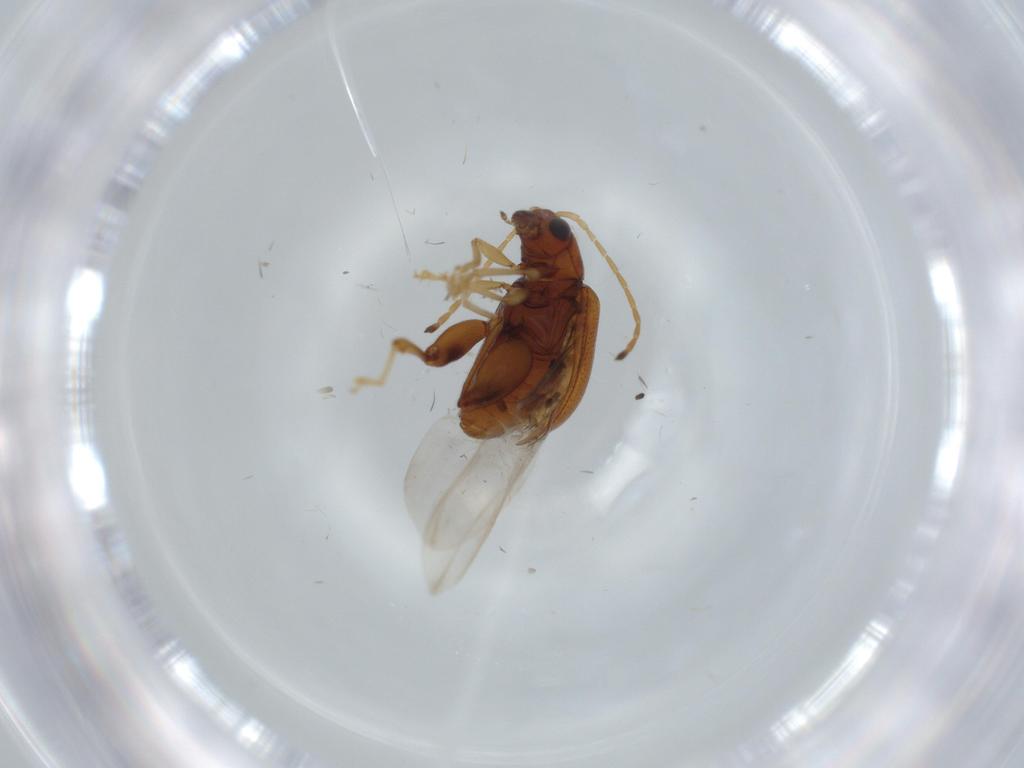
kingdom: Animalia
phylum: Arthropoda
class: Insecta
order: Coleoptera
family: Chrysomelidae
